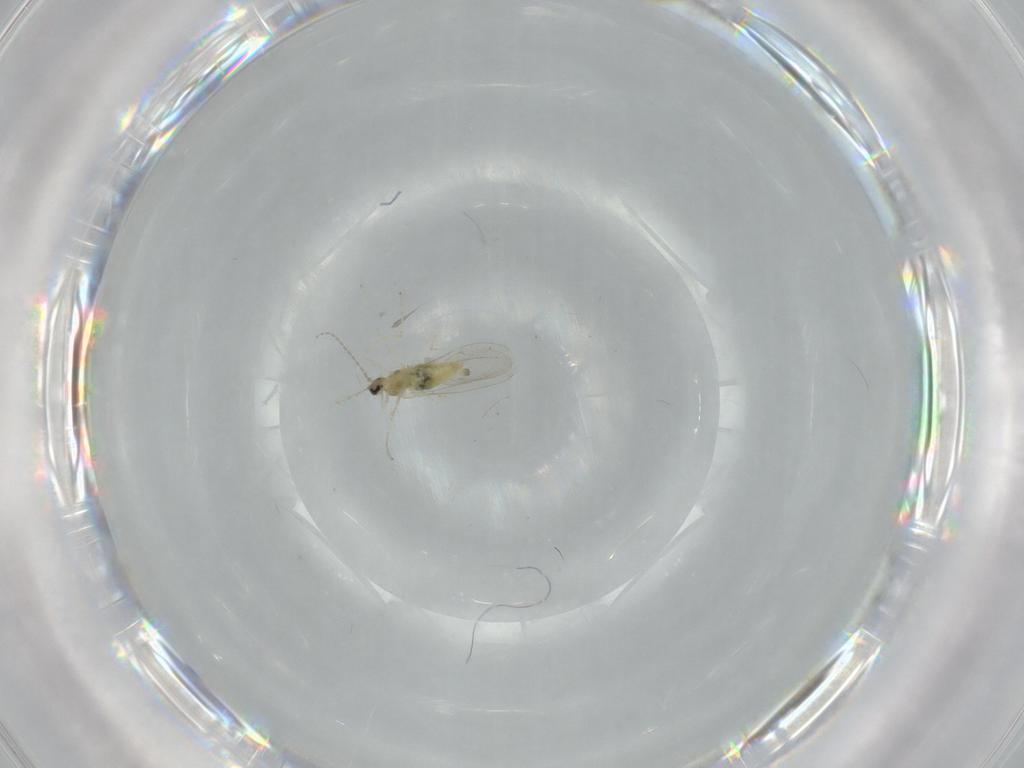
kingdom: Animalia
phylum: Arthropoda
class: Insecta
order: Diptera
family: Cecidomyiidae
